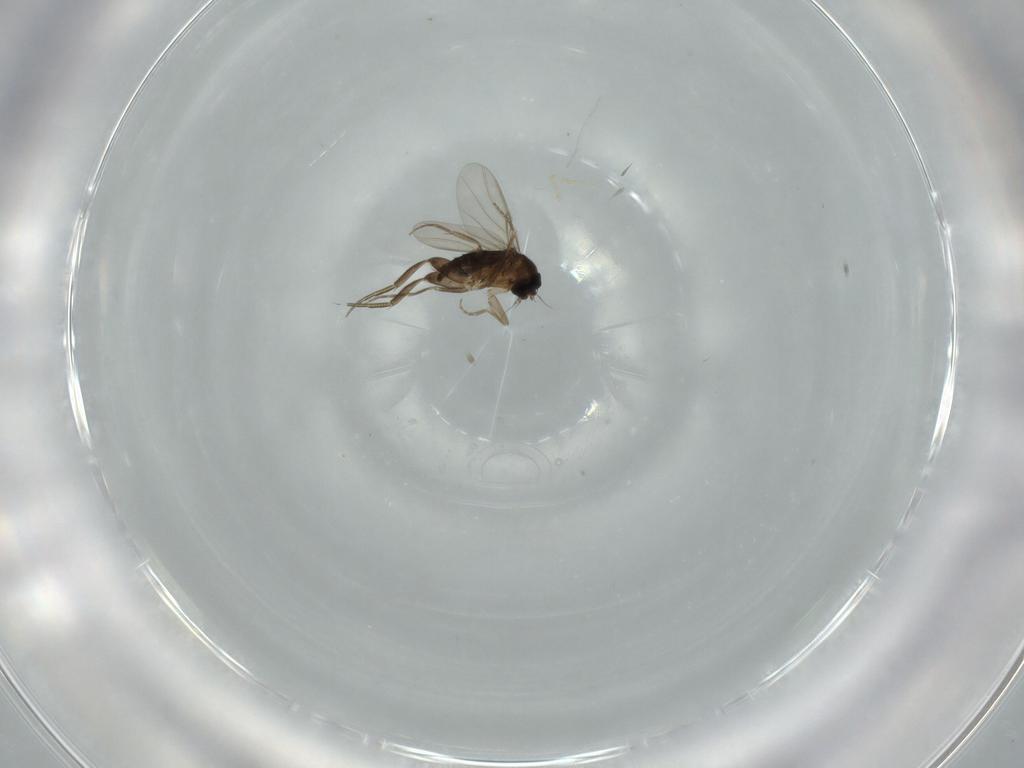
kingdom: Animalia
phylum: Arthropoda
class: Insecta
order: Diptera
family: Phoridae
